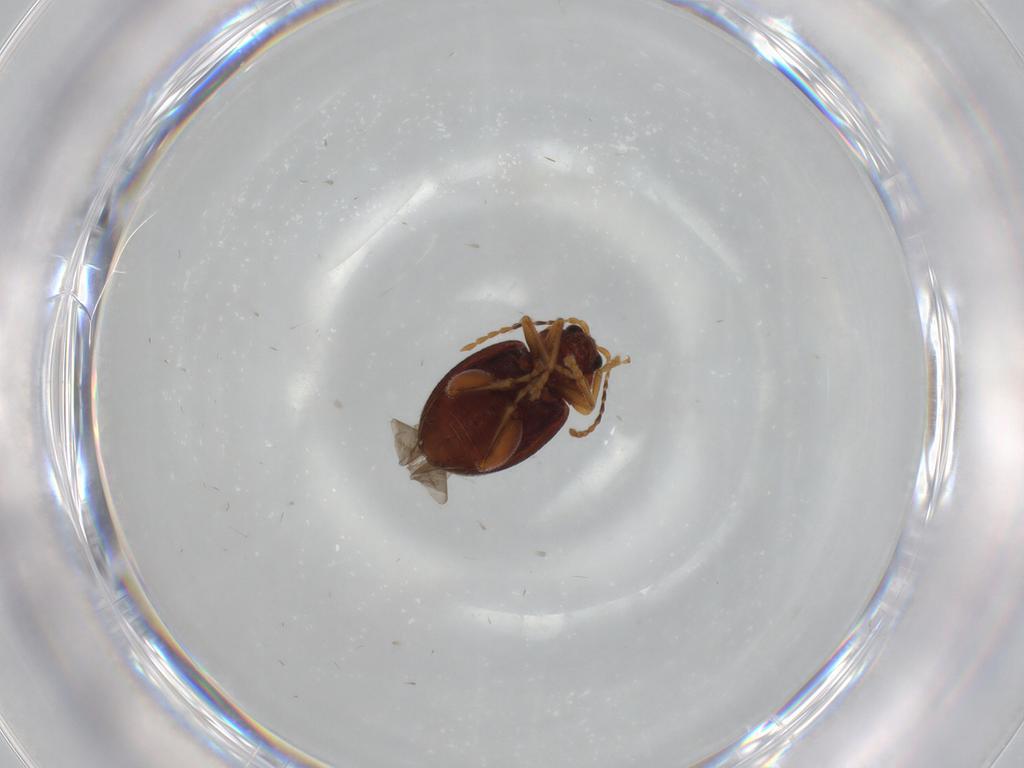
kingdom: Animalia
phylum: Arthropoda
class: Insecta
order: Coleoptera
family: Chrysomelidae
